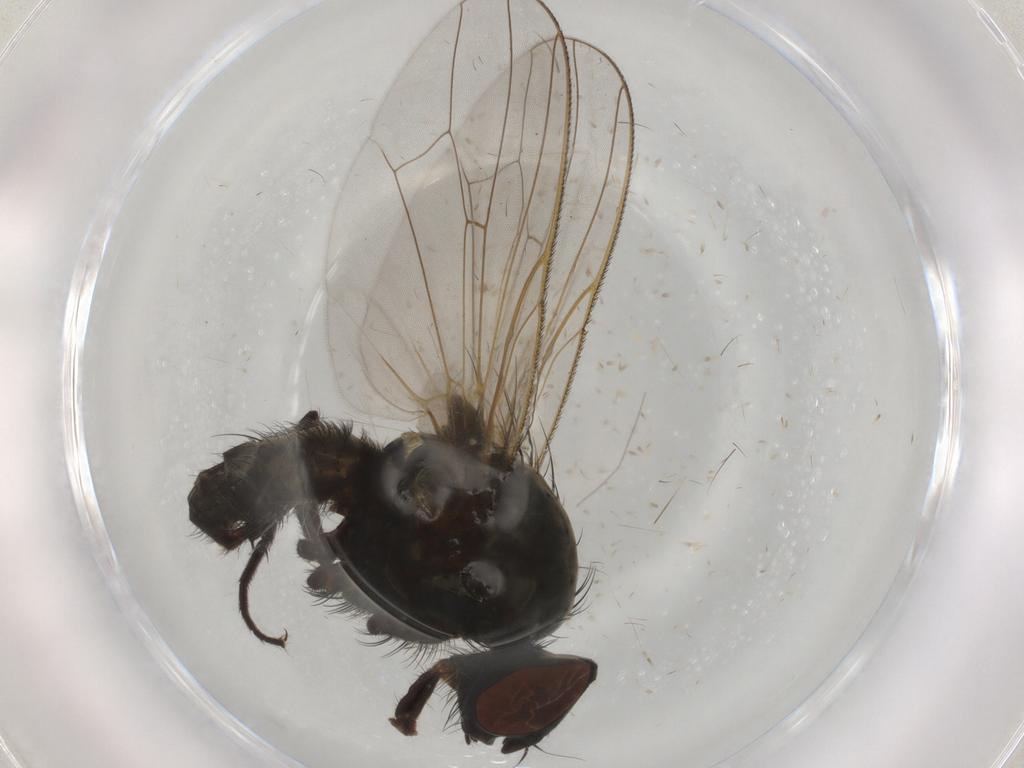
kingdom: Animalia
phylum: Arthropoda
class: Insecta
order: Diptera
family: Anthomyiidae
